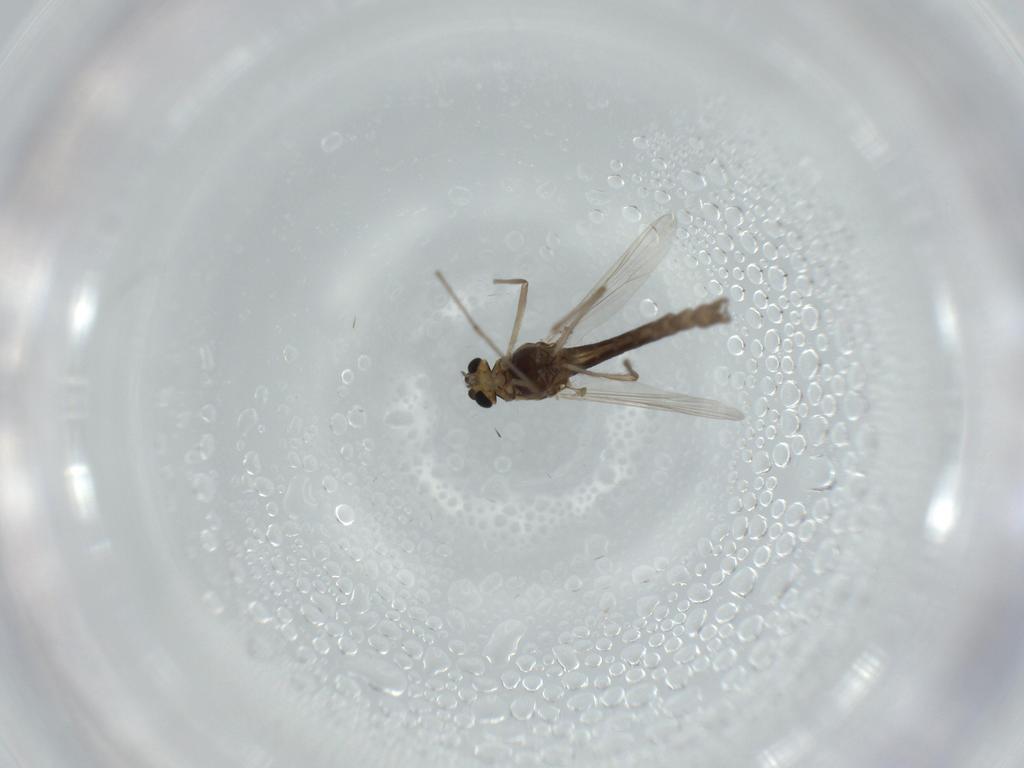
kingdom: Animalia
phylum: Arthropoda
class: Insecta
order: Diptera
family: Chironomidae
